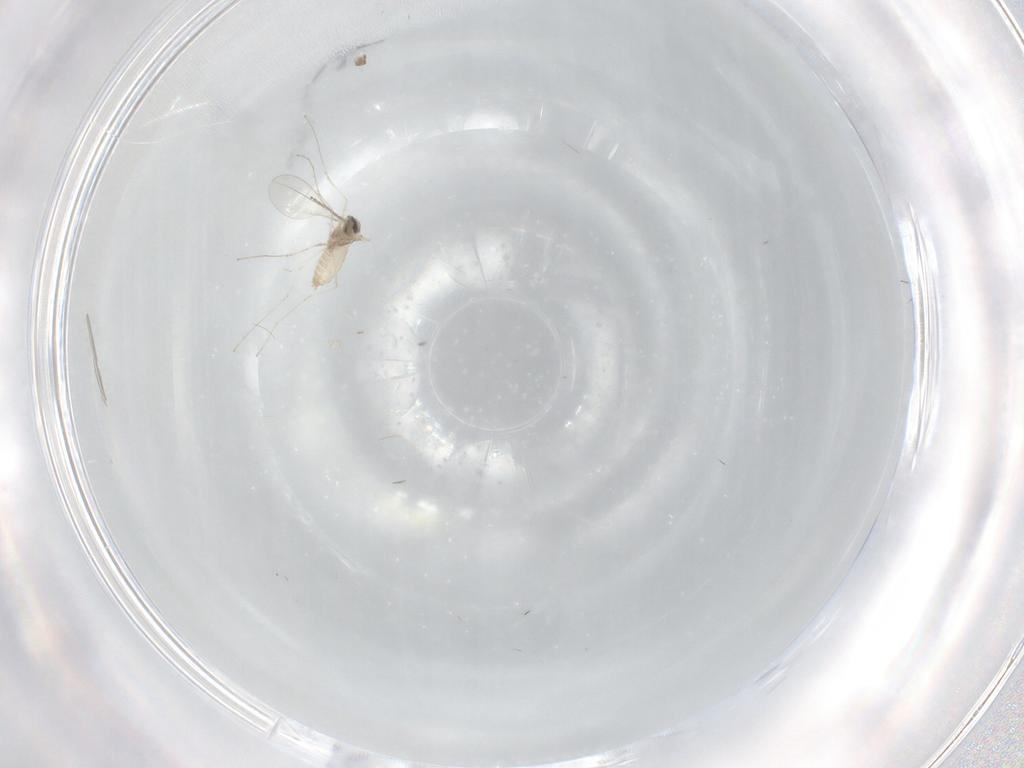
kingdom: Animalia
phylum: Arthropoda
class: Insecta
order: Diptera
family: Cecidomyiidae
